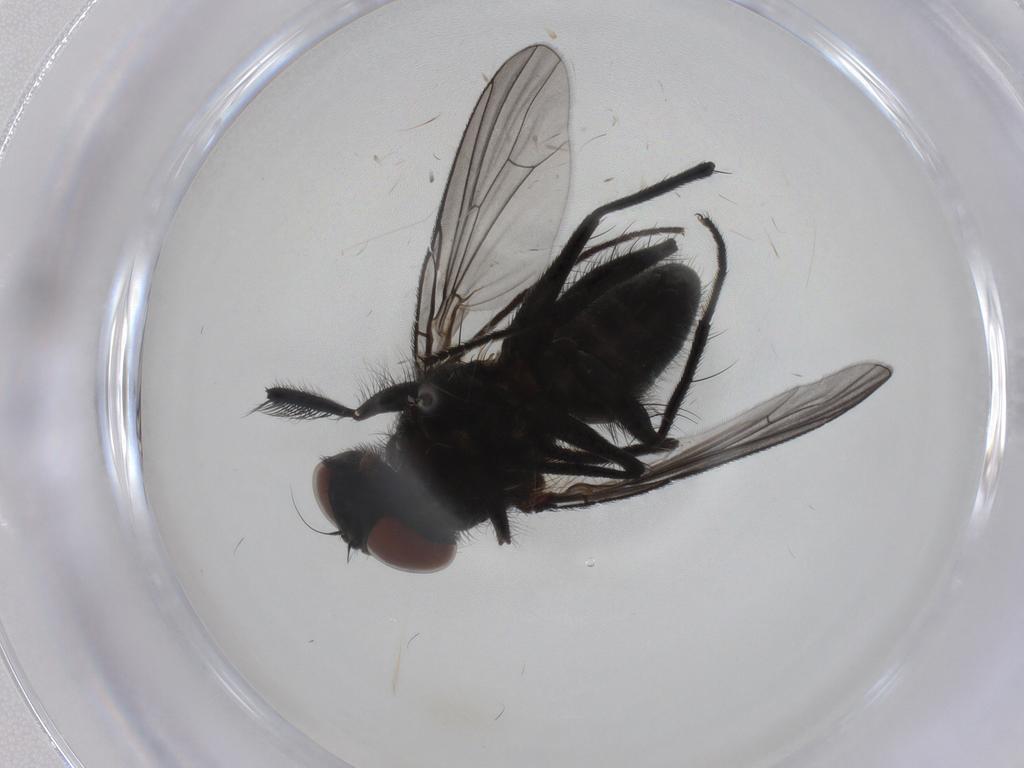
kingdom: Animalia
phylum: Arthropoda
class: Insecta
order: Diptera
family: Muscidae
